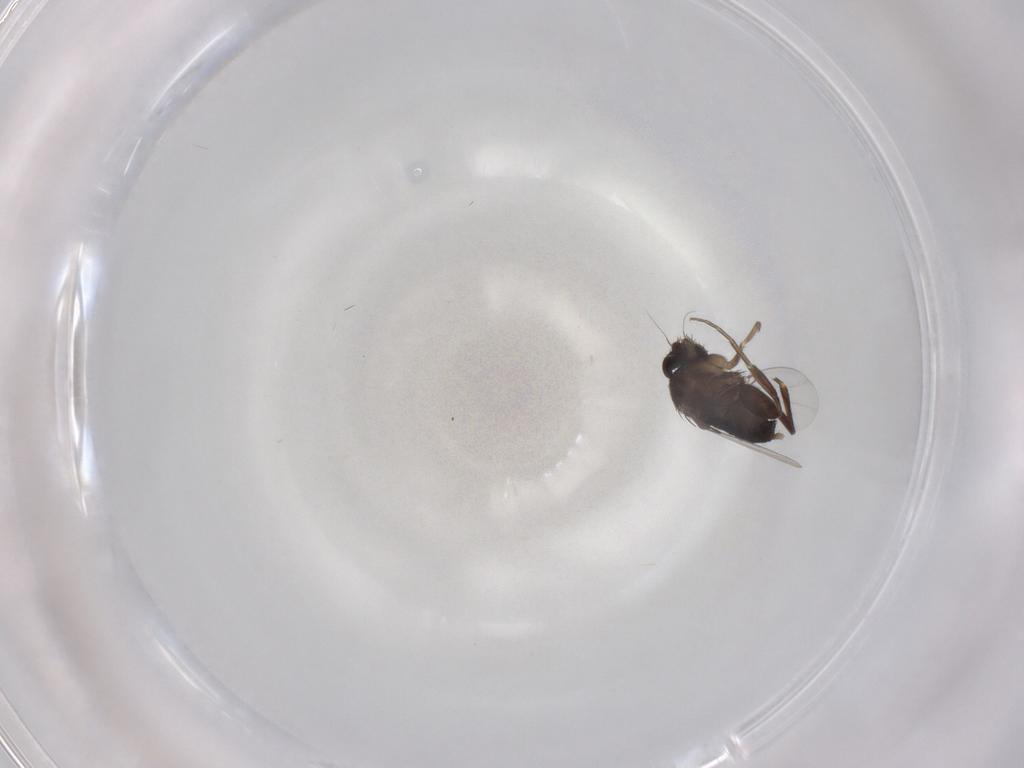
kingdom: Animalia
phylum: Arthropoda
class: Insecta
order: Diptera
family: Phoridae
